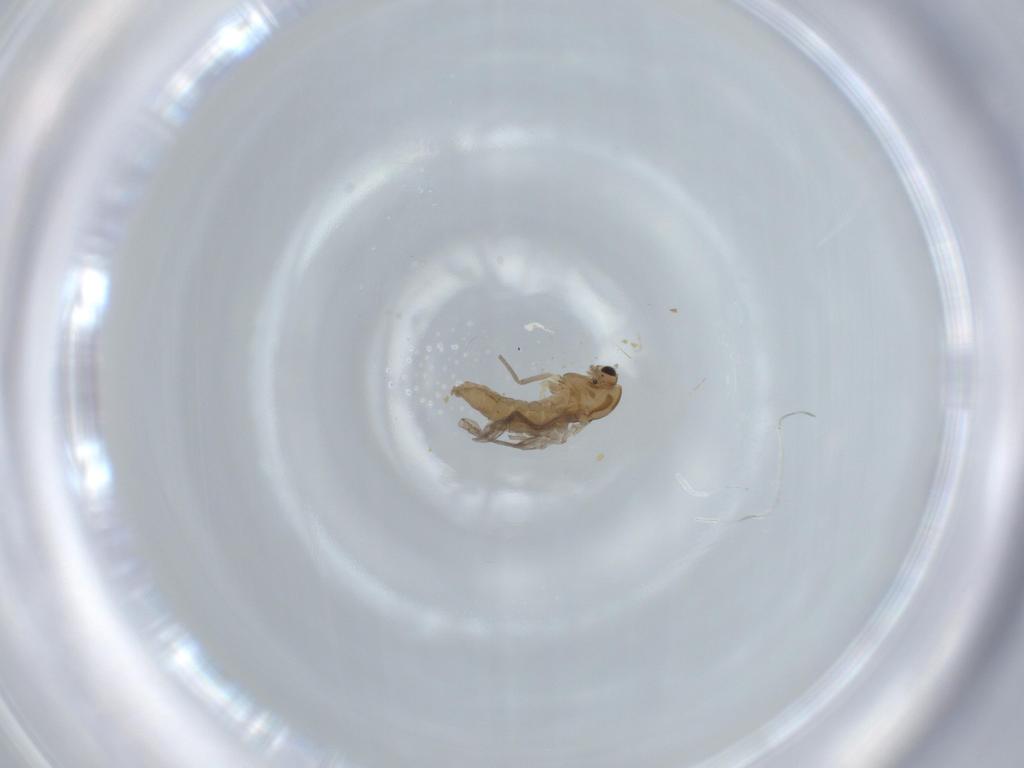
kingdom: Animalia
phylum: Arthropoda
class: Insecta
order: Diptera
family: Chironomidae
